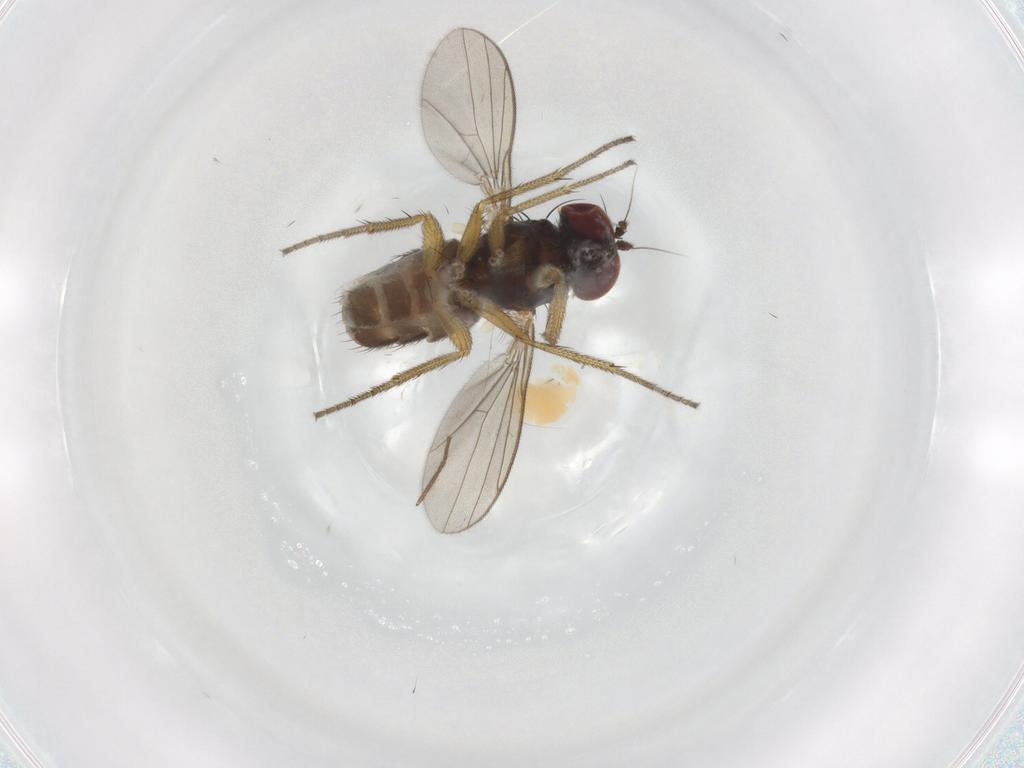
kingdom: Animalia
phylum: Arthropoda
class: Insecta
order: Diptera
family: Dolichopodidae
